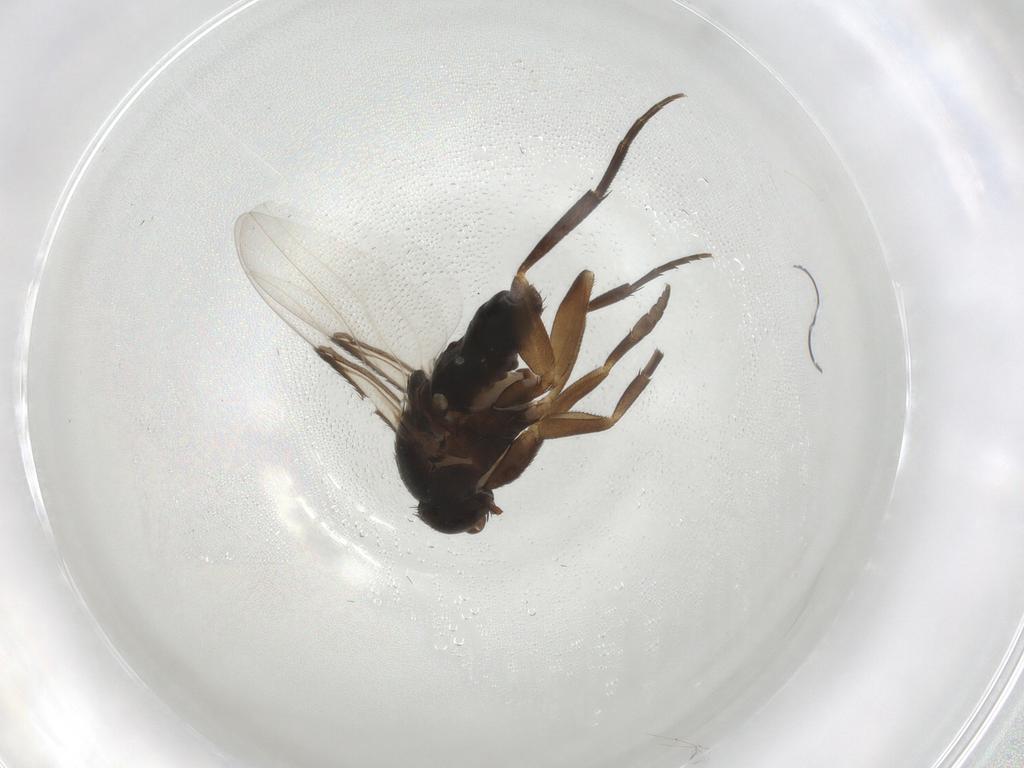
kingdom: Animalia
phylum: Arthropoda
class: Insecta
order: Diptera
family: Phoridae
